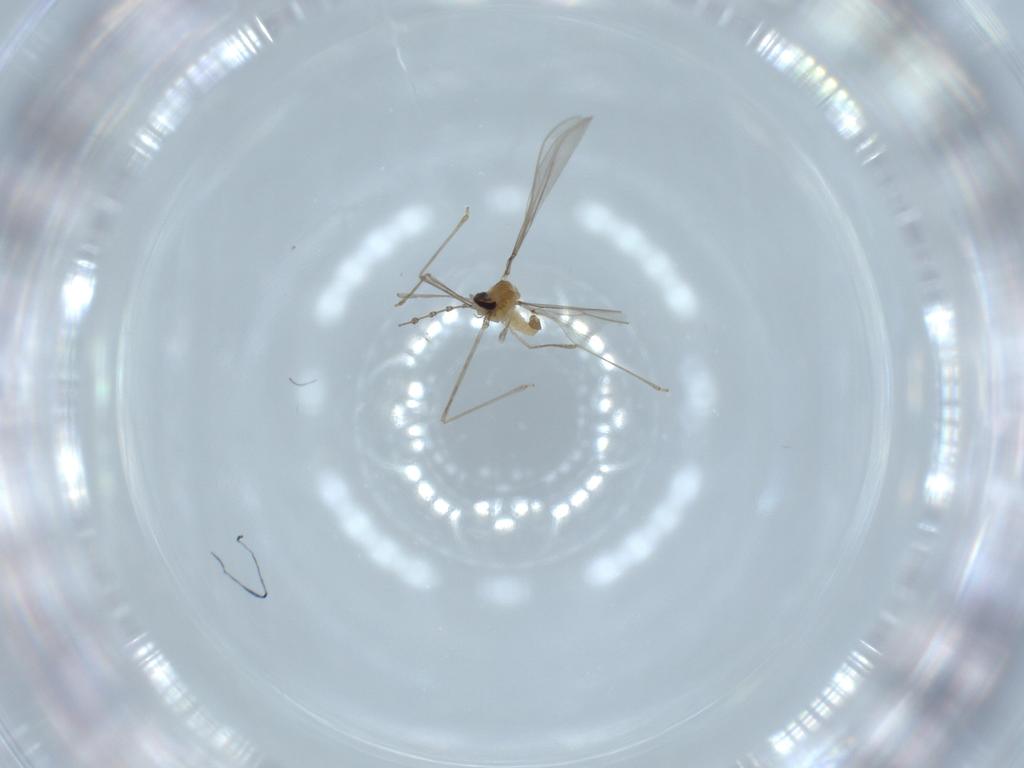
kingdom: Animalia
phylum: Arthropoda
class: Insecta
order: Diptera
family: Cecidomyiidae
